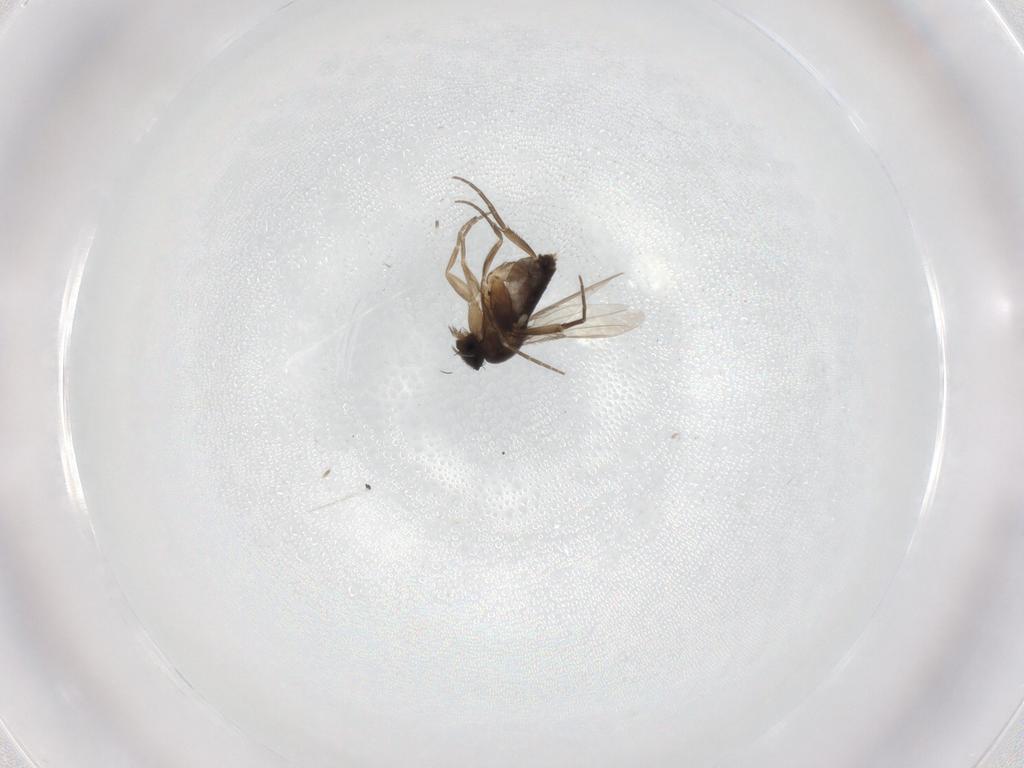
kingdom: Animalia
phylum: Arthropoda
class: Insecta
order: Diptera
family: Phoridae
